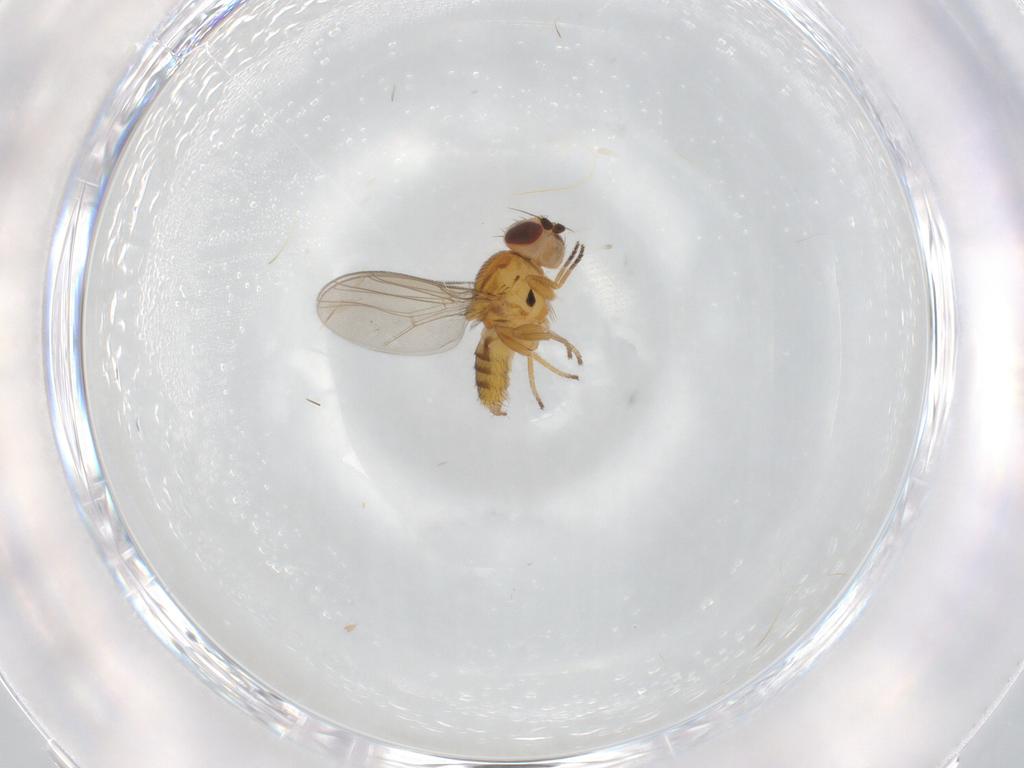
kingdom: Animalia
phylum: Arthropoda
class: Insecta
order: Diptera
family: Chloropidae
